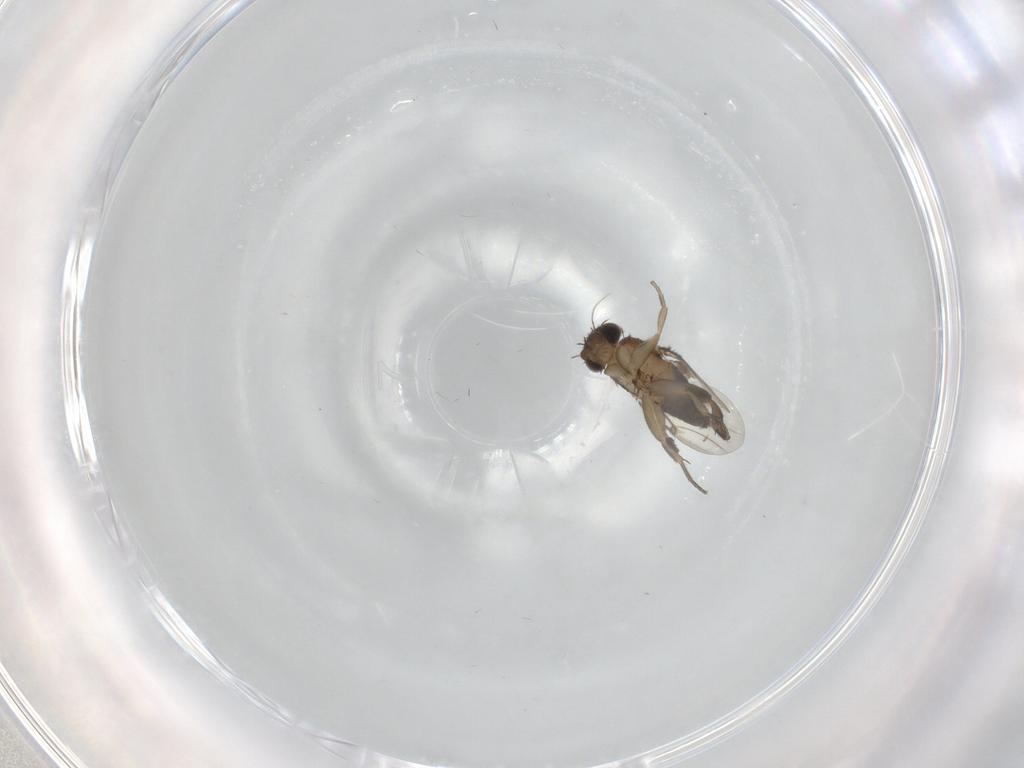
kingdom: Animalia
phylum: Arthropoda
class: Insecta
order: Diptera
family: Phoridae
